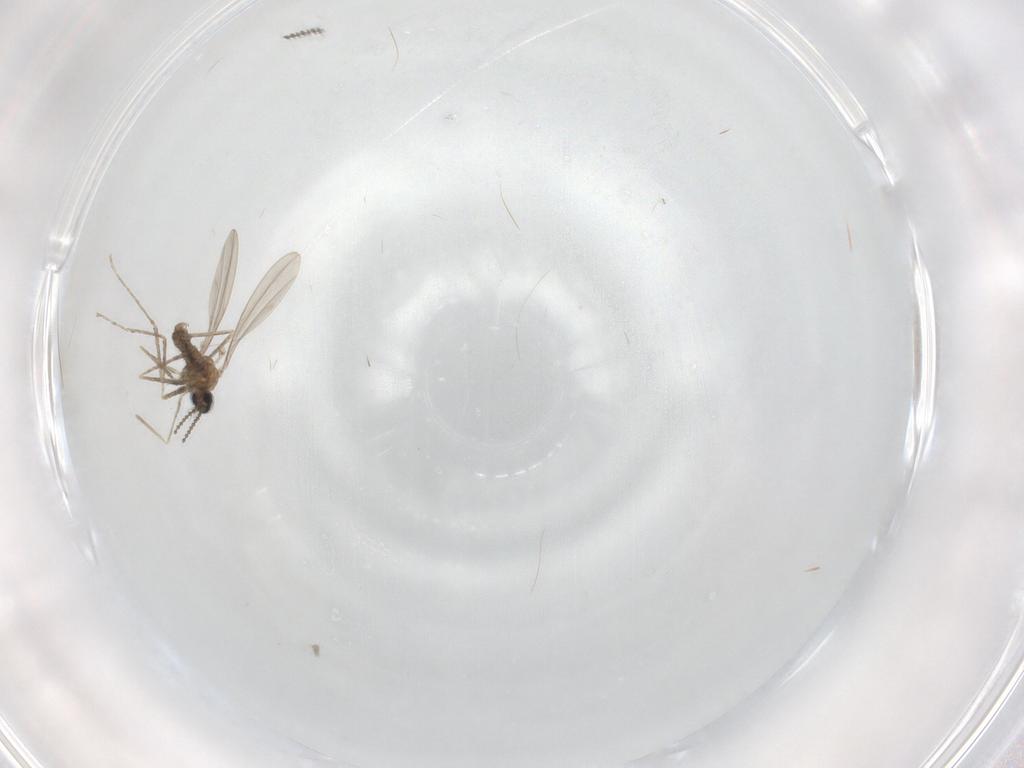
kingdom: Animalia
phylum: Arthropoda
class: Insecta
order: Diptera
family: Cecidomyiidae
